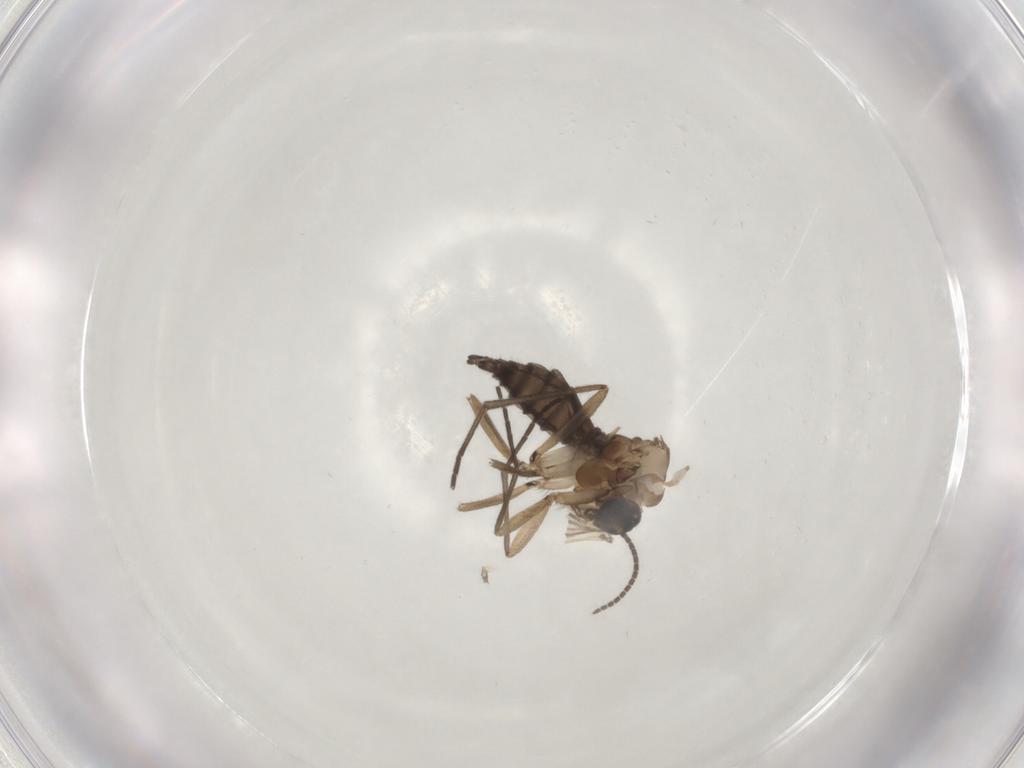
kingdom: Animalia
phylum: Arthropoda
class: Insecta
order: Diptera
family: Sciaridae
